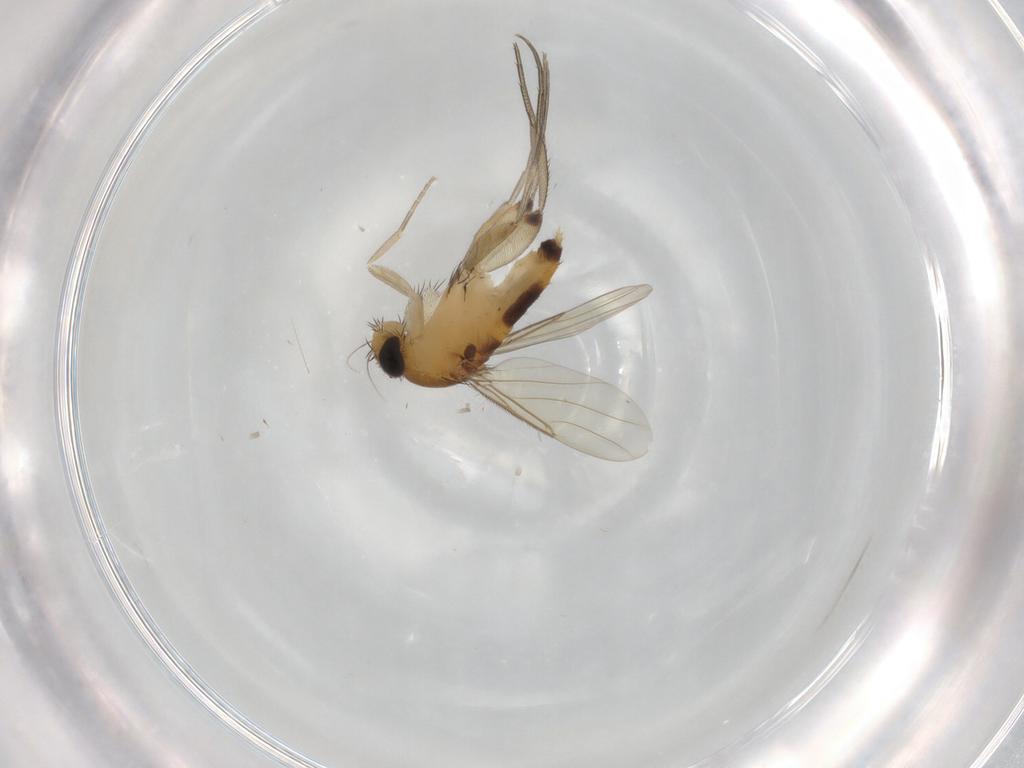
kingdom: Animalia
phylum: Arthropoda
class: Insecta
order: Diptera
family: Phoridae
